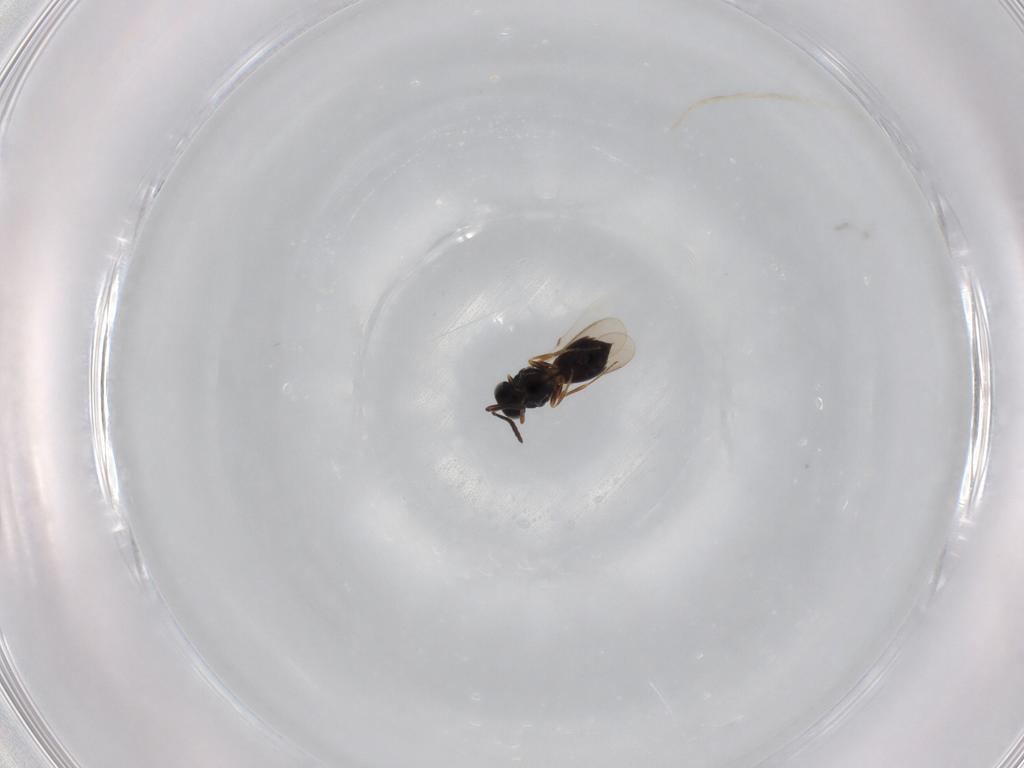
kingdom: Animalia
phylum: Arthropoda
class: Insecta
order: Hymenoptera
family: Scelionidae
